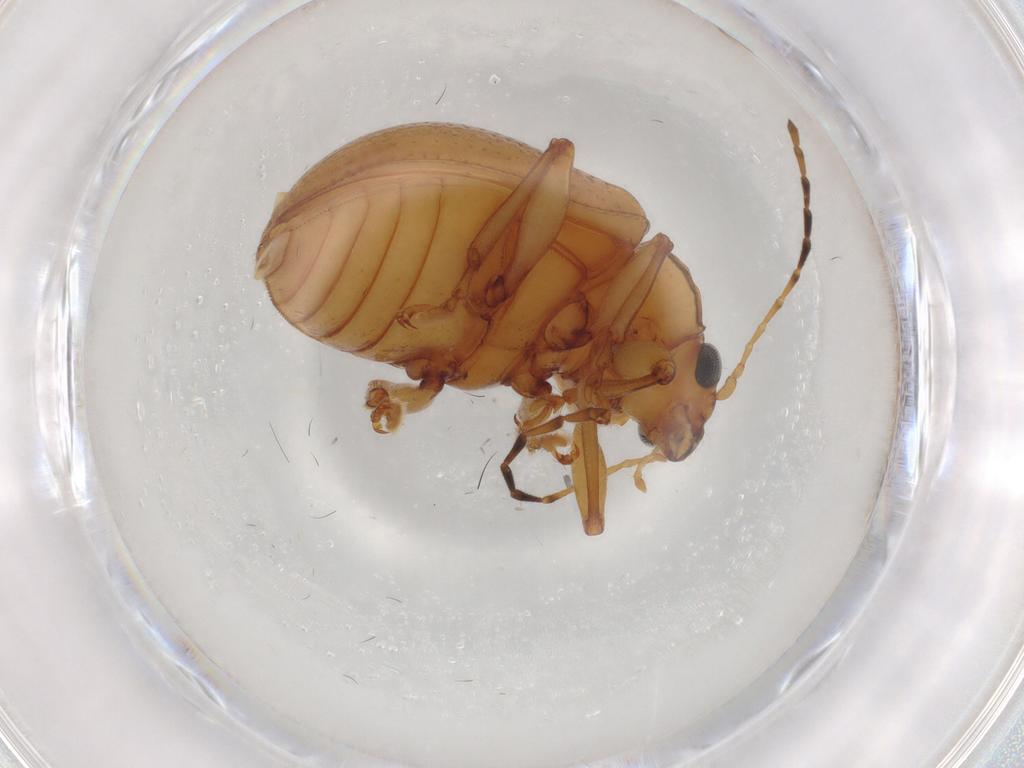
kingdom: Animalia
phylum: Arthropoda
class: Insecta
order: Coleoptera
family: Chrysomelidae
